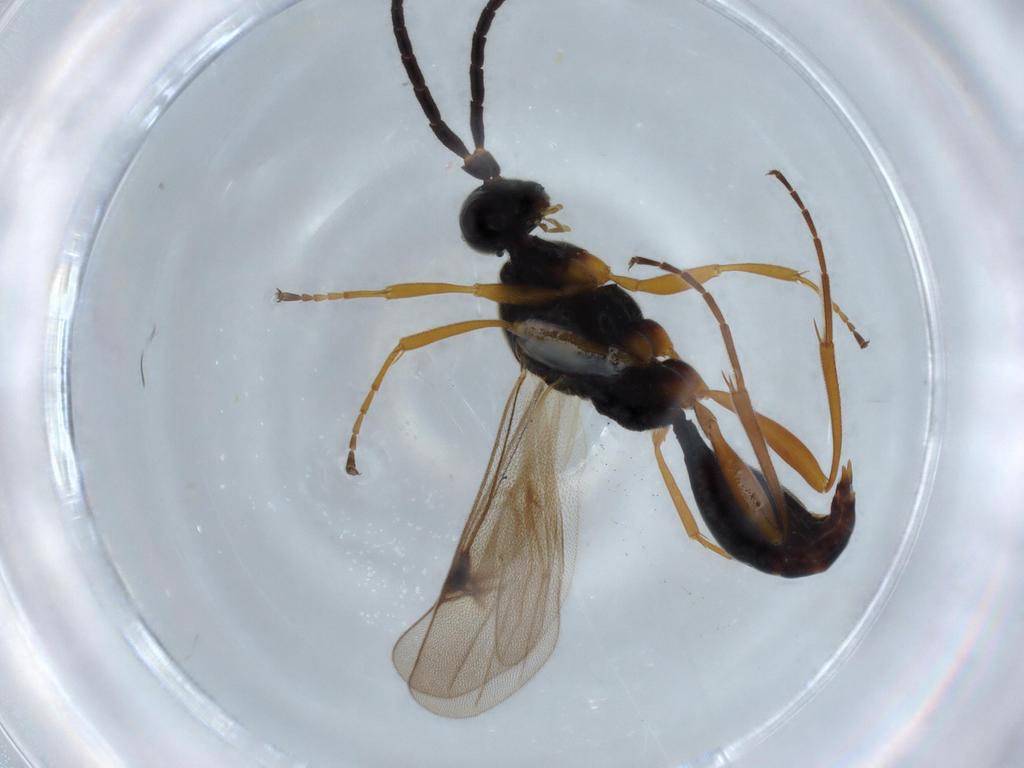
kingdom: Animalia
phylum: Arthropoda
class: Insecta
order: Hymenoptera
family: Proctotrupidae
